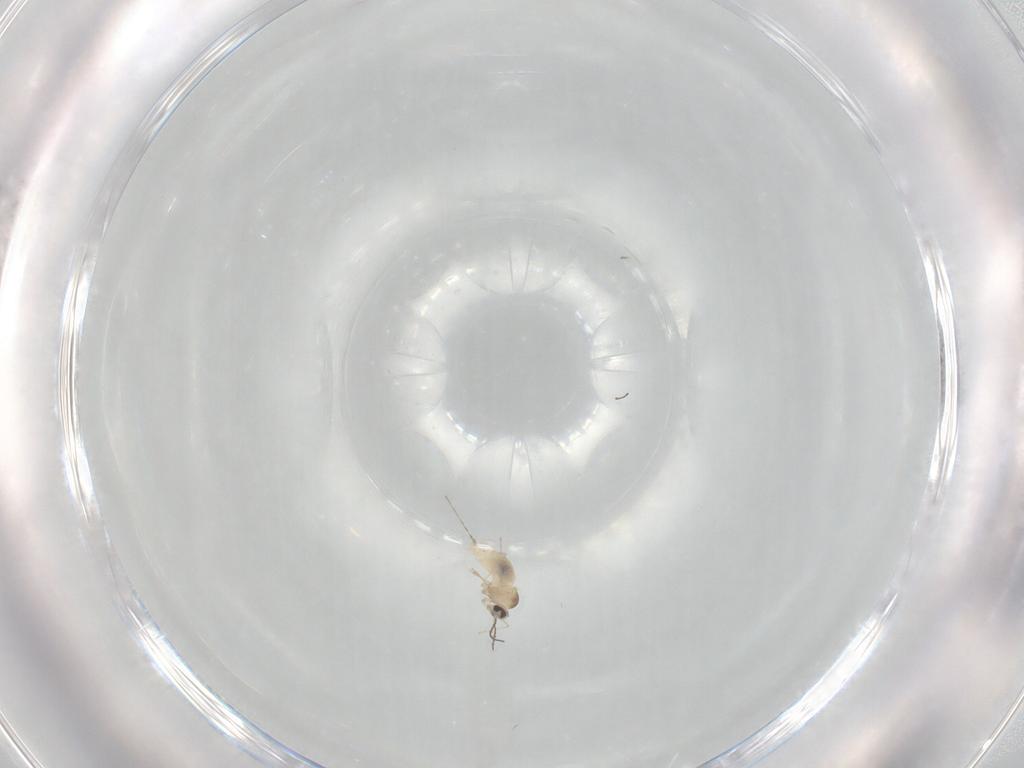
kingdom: Animalia
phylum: Arthropoda
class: Insecta
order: Diptera
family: Cecidomyiidae
